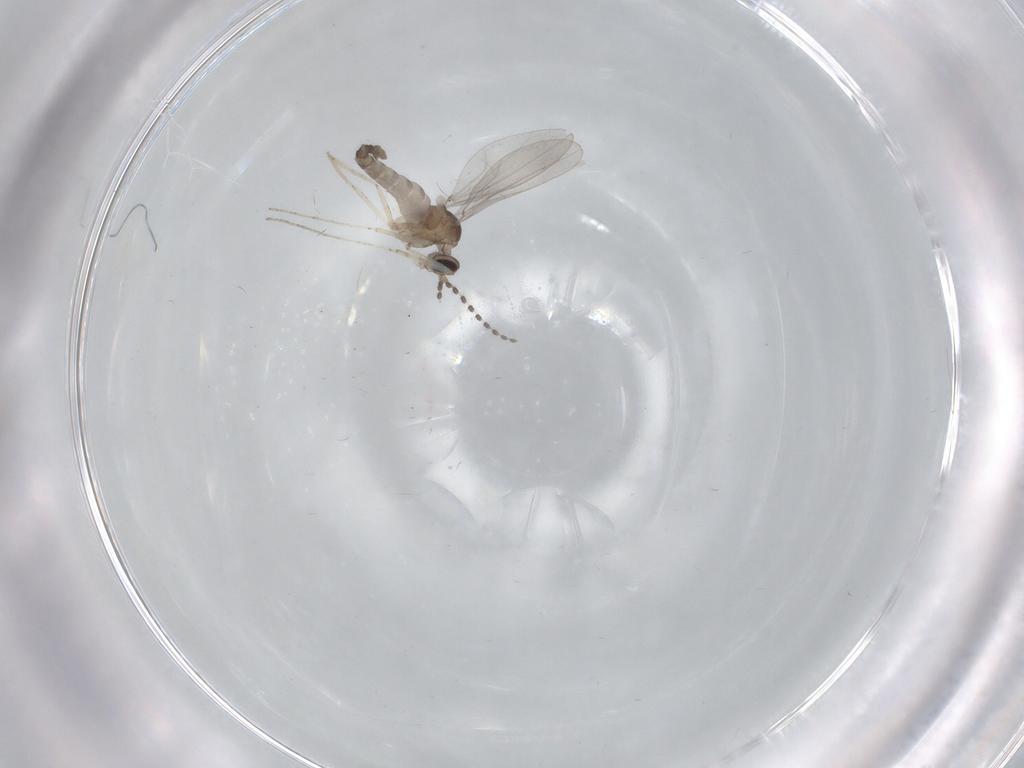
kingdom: Animalia
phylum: Arthropoda
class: Insecta
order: Diptera
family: Cecidomyiidae
